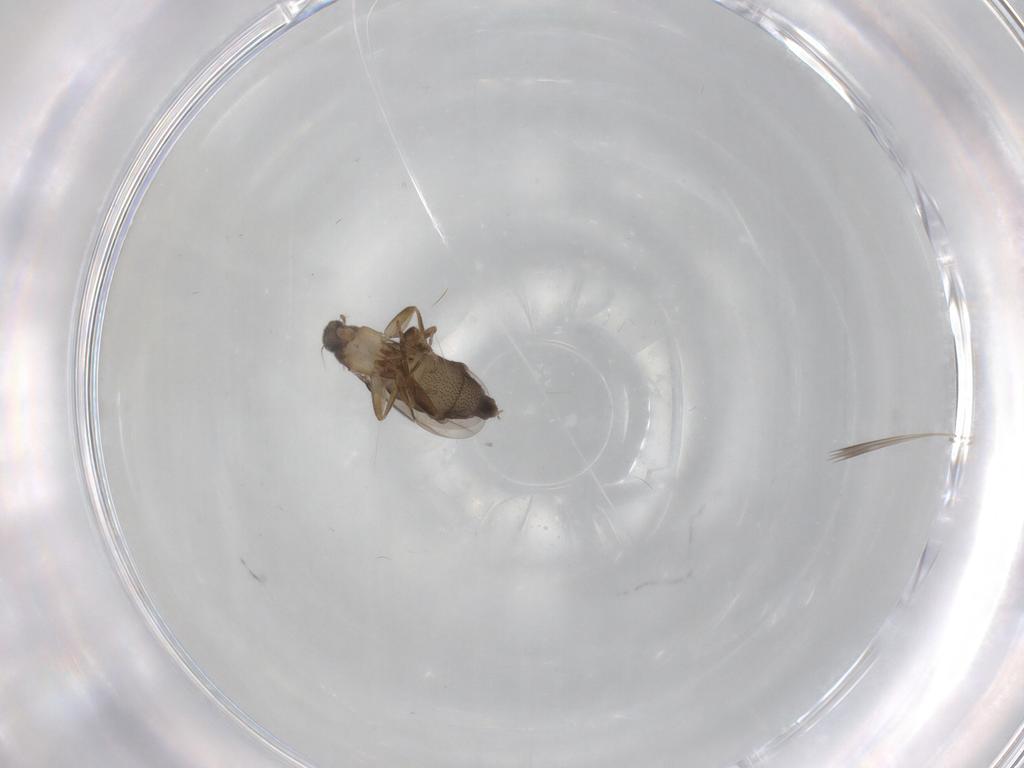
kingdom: Animalia
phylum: Arthropoda
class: Insecta
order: Diptera
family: Phoridae
